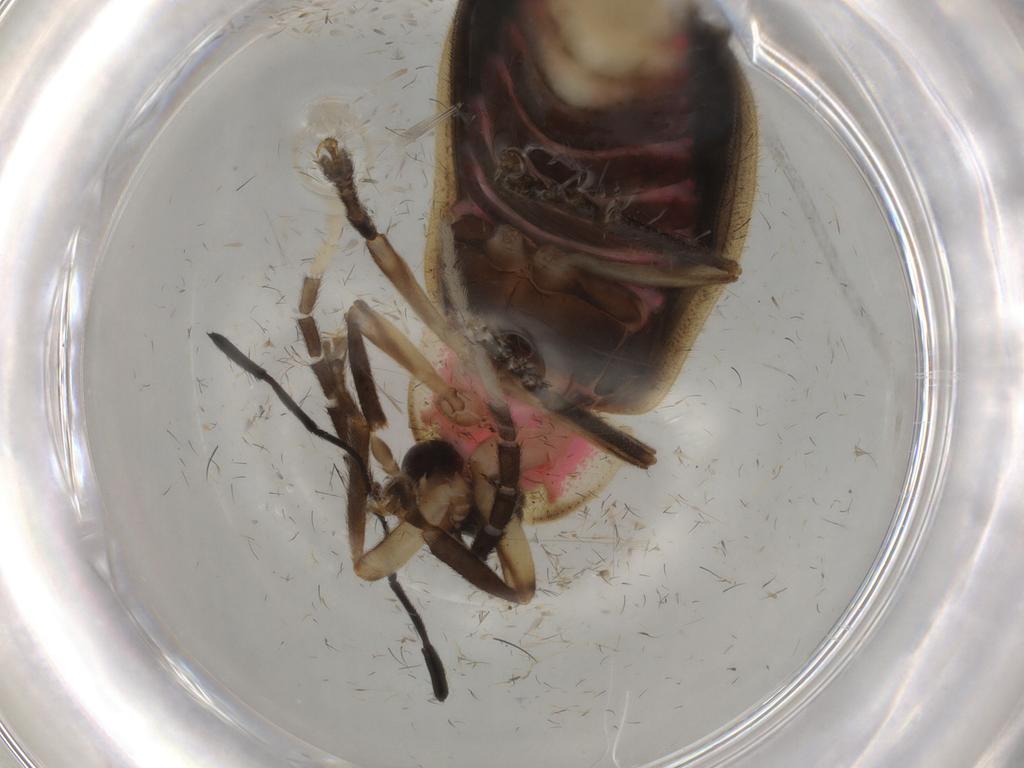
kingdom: Animalia
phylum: Arthropoda
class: Insecta
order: Coleoptera
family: Lampyridae
